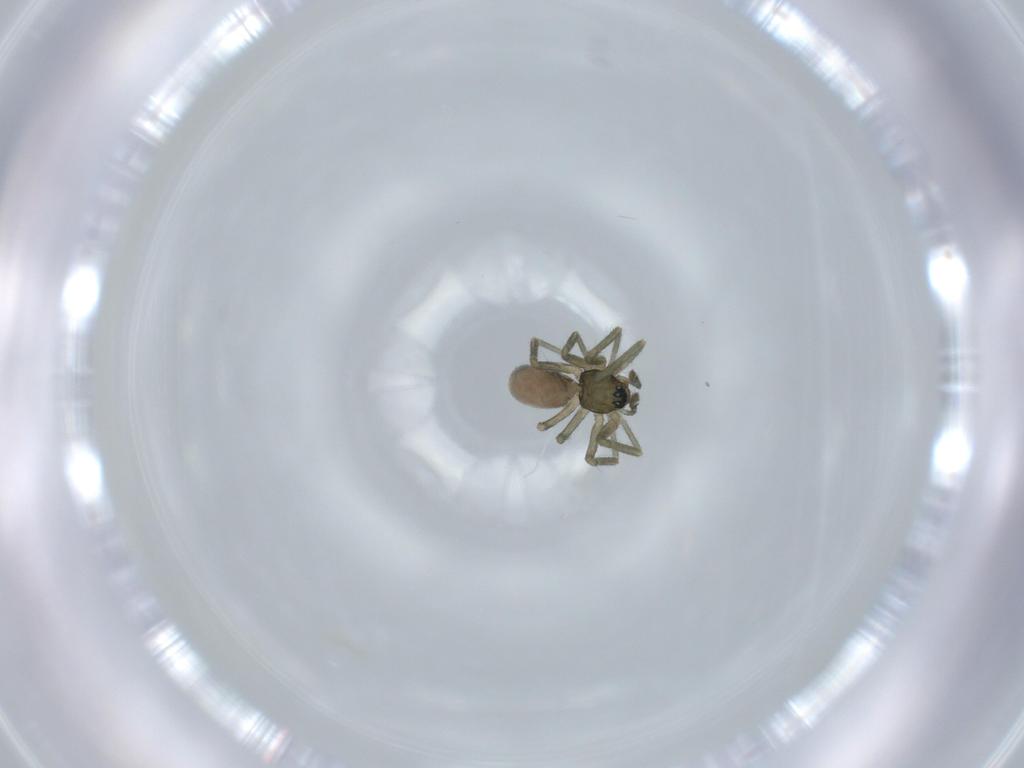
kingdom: Animalia
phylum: Arthropoda
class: Arachnida
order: Araneae
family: Linyphiidae
